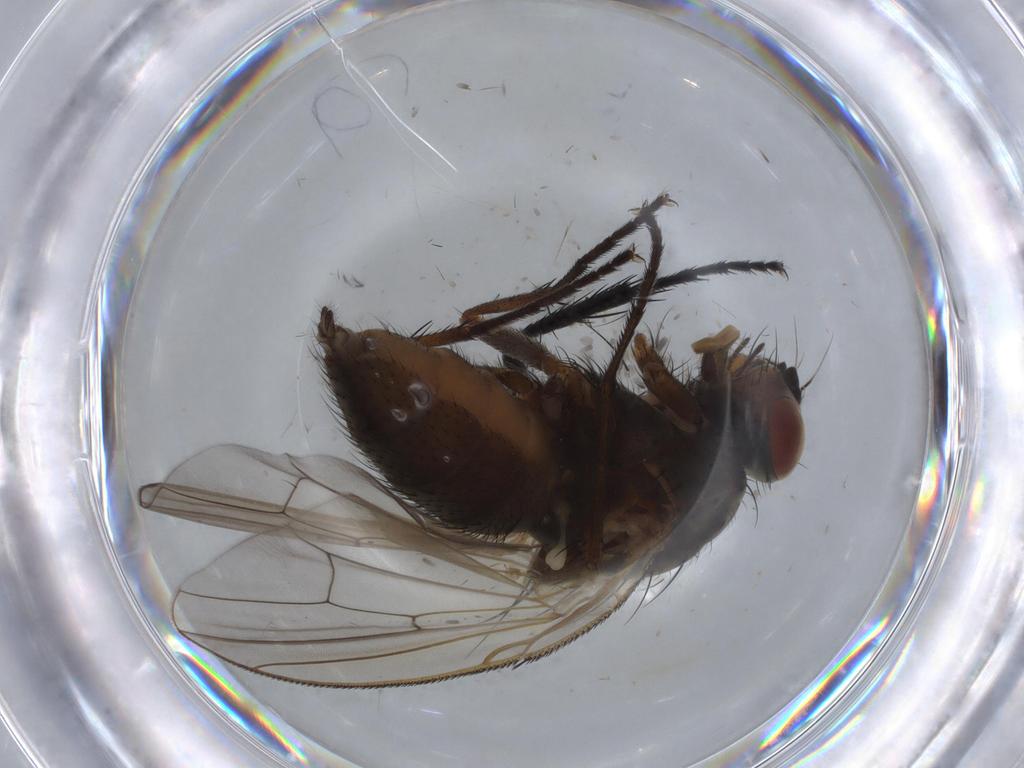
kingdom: Animalia
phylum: Arthropoda
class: Insecta
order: Diptera
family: Anthomyiidae
